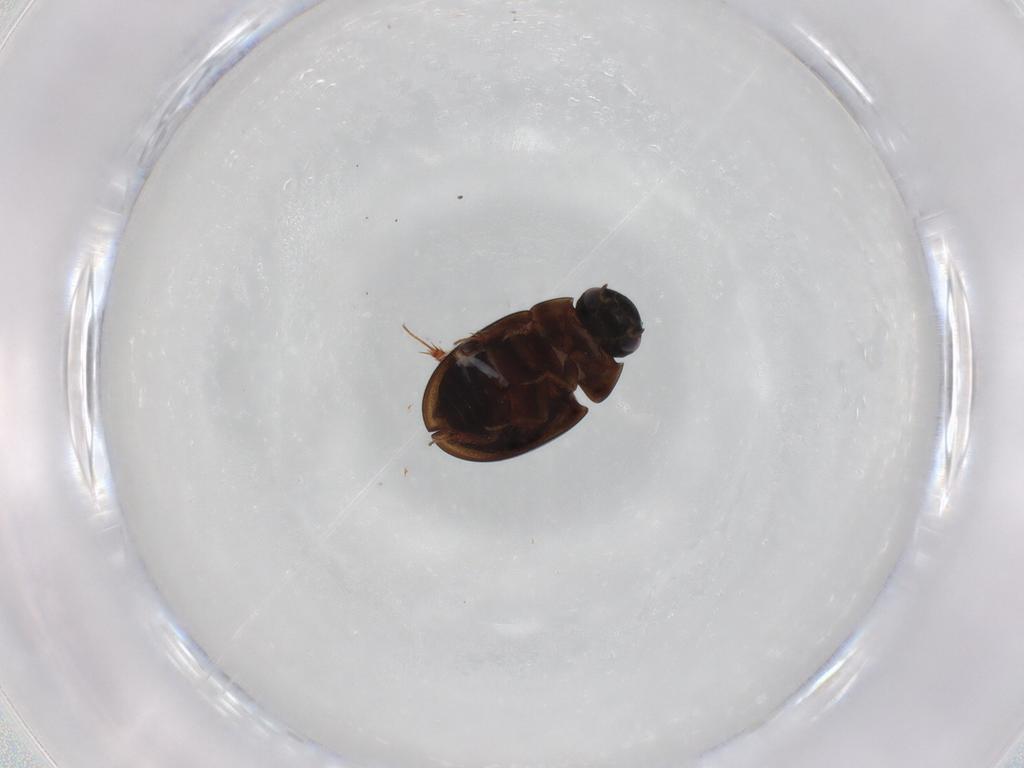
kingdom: Animalia
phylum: Arthropoda
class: Insecta
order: Coleoptera
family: Hydrophilidae
